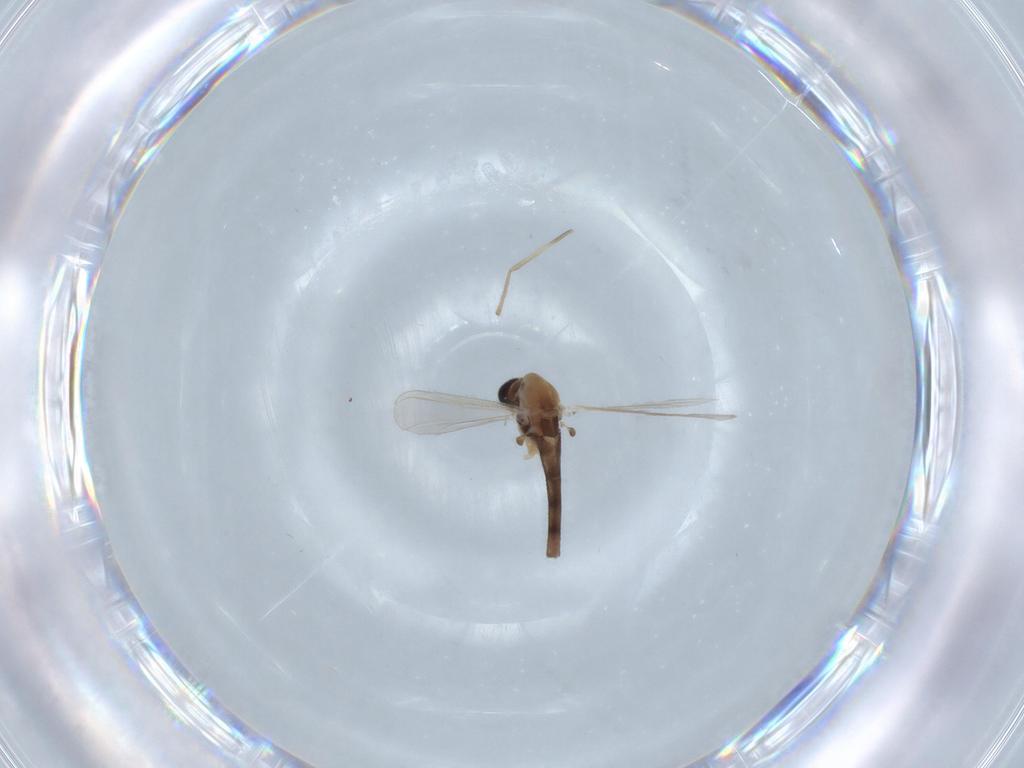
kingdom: Animalia
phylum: Arthropoda
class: Insecta
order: Diptera
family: Chironomidae
